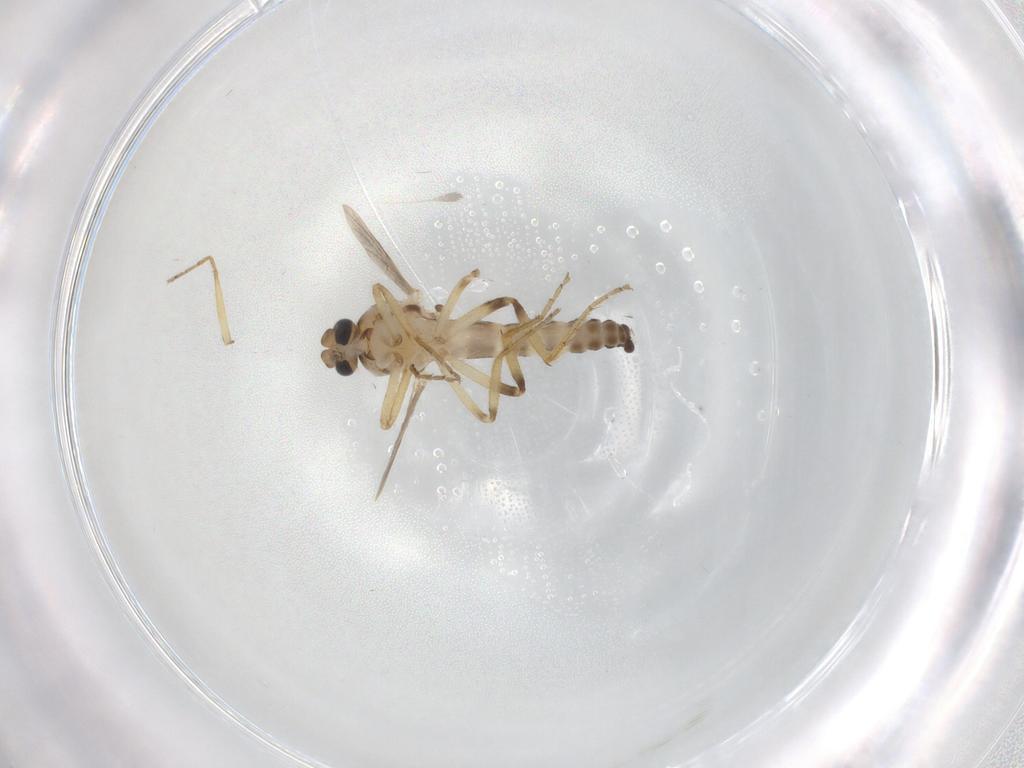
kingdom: Animalia
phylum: Arthropoda
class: Insecta
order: Diptera
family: Ceratopogonidae
